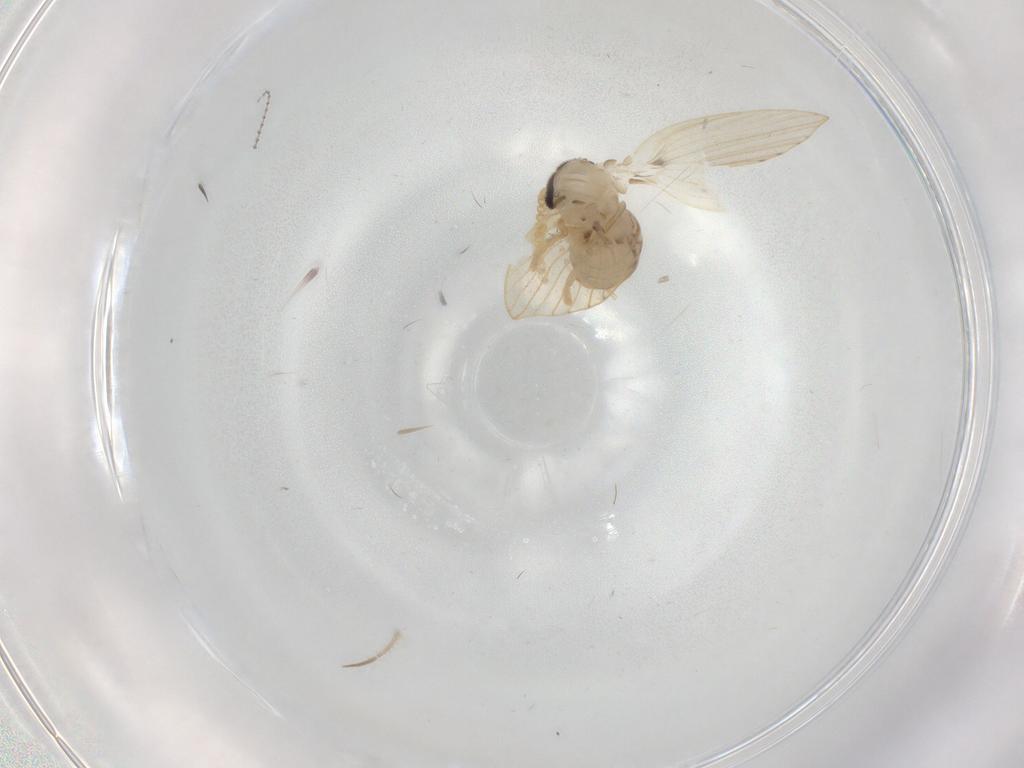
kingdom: Animalia
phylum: Arthropoda
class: Insecta
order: Diptera
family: Psychodidae
